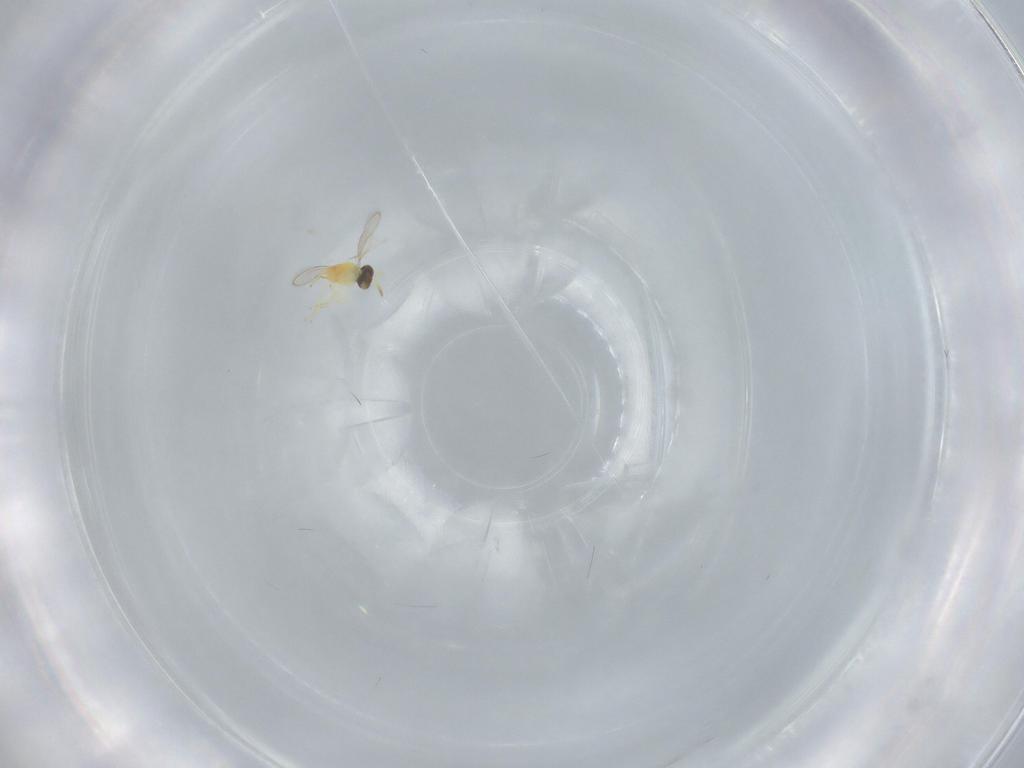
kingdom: Animalia
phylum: Arthropoda
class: Insecta
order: Hymenoptera
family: Aphelinidae
